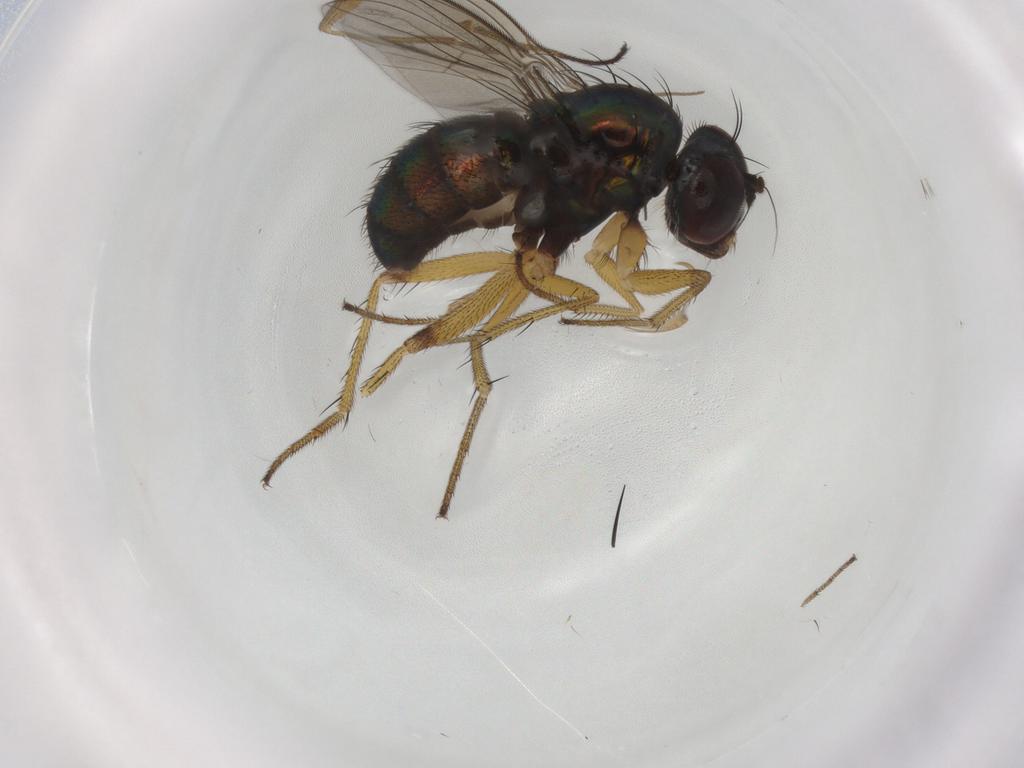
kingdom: Animalia
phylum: Arthropoda
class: Insecta
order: Diptera
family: Dolichopodidae
